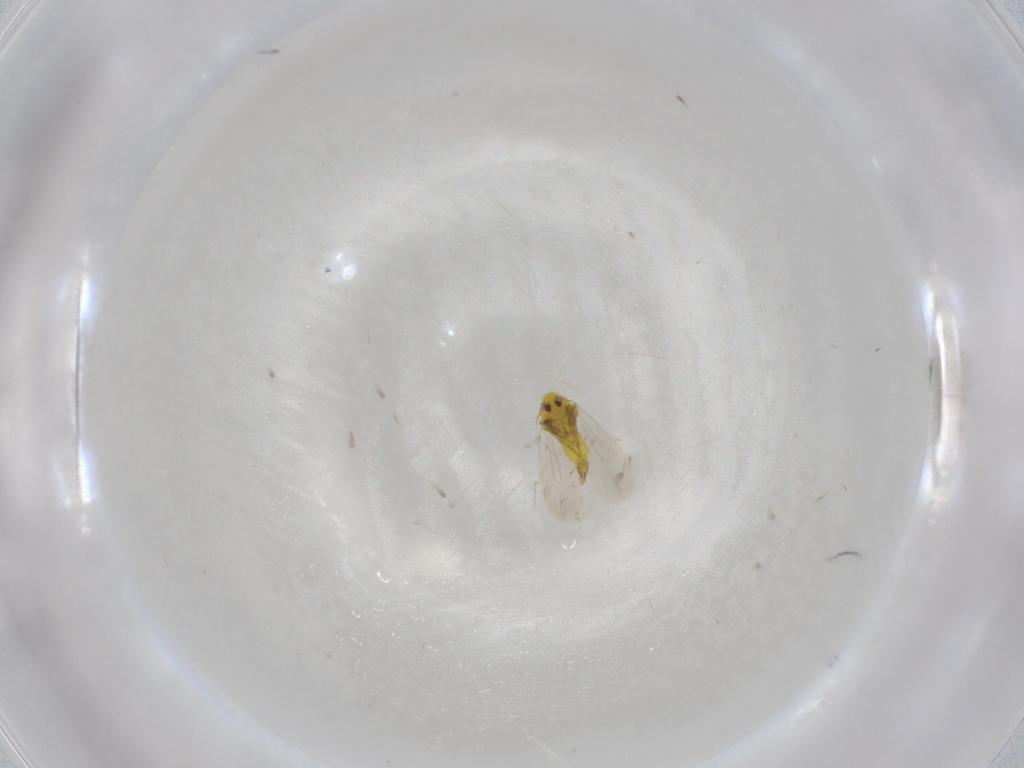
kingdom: Animalia
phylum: Arthropoda
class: Insecta
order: Hemiptera
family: Aleyrodidae
